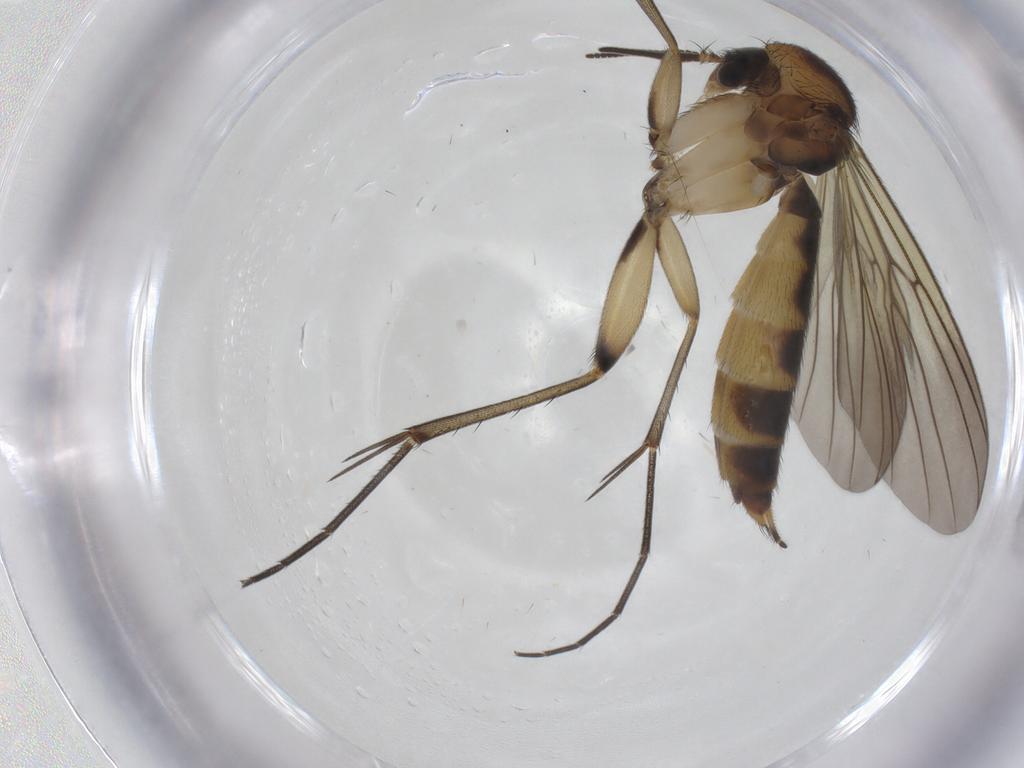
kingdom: Animalia
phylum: Arthropoda
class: Insecta
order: Diptera
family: Mycetophilidae
